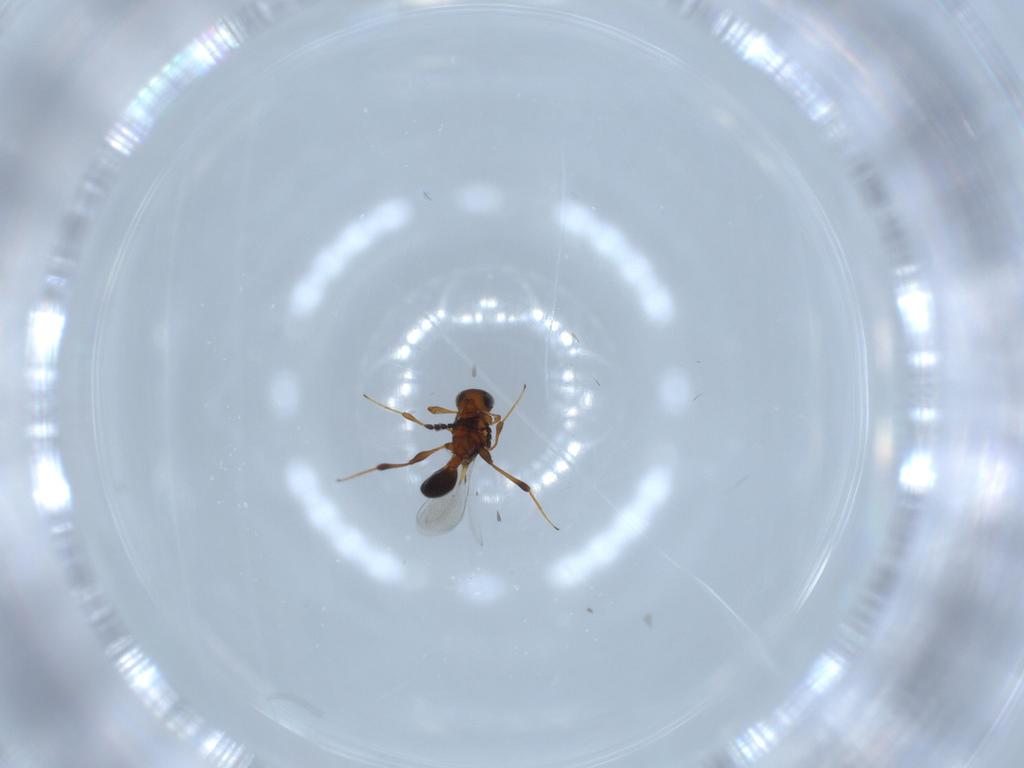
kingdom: Animalia
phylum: Arthropoda
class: Insecta
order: Hymenoptera
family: Platygastridae
